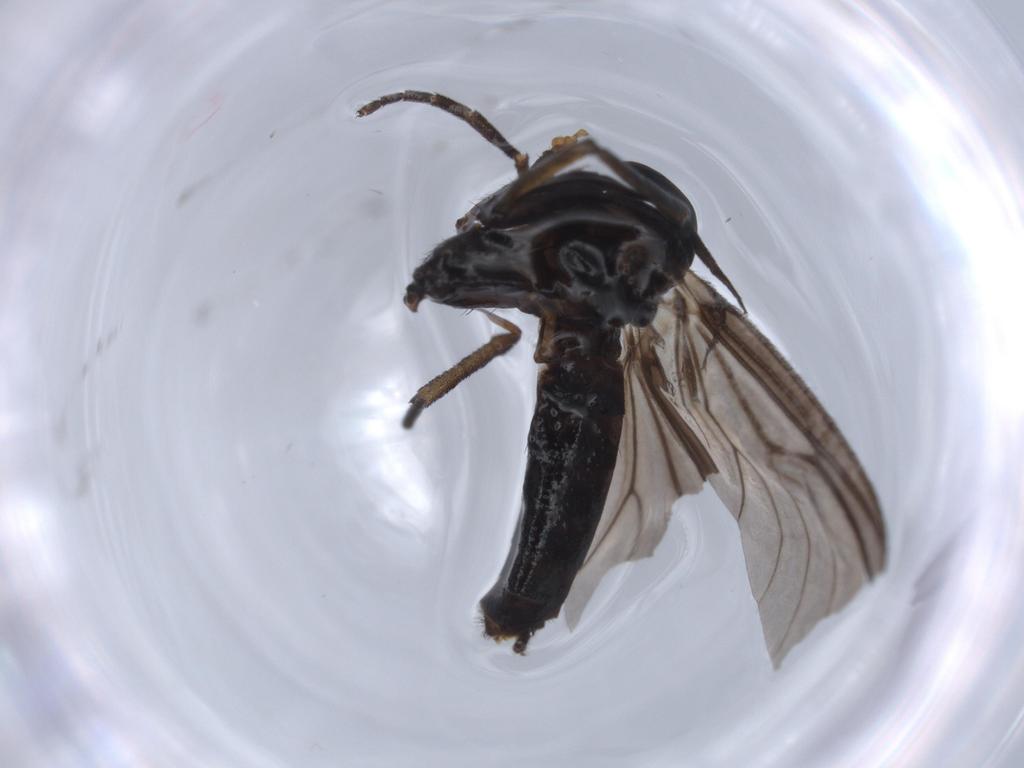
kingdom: Animalia
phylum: Arthropoda
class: Insecta
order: Diptera
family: Mycetophilidae
